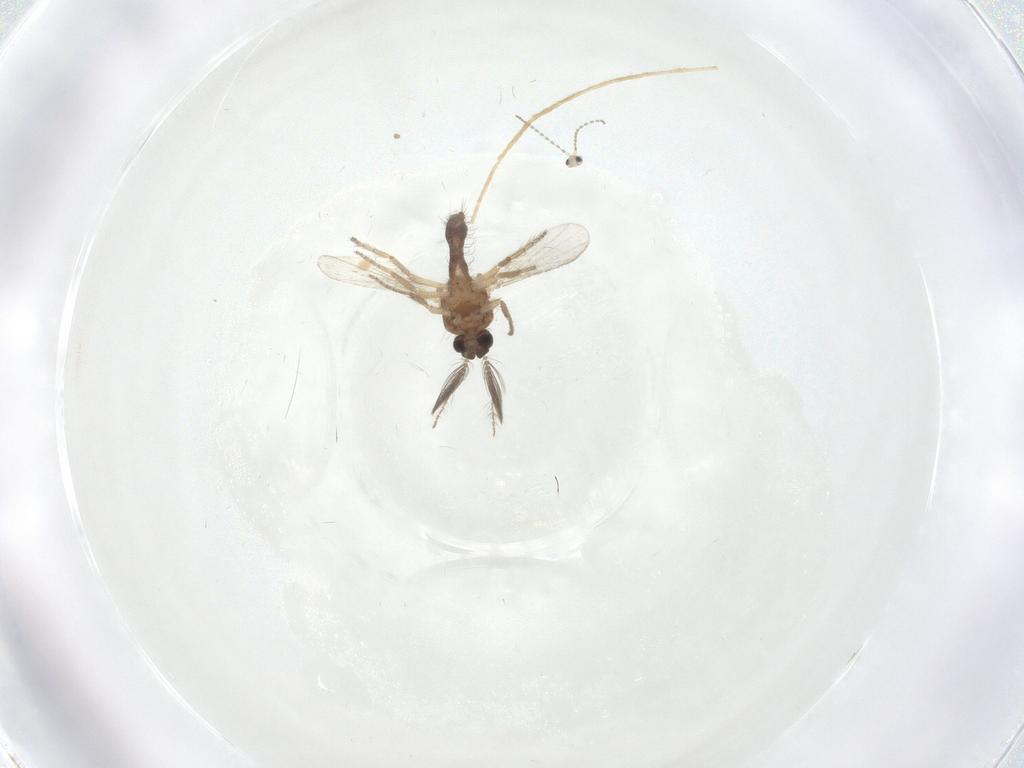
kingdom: Animalia
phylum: Arthropoda
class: Insecta
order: Diptera
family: Ceratopogonidae
